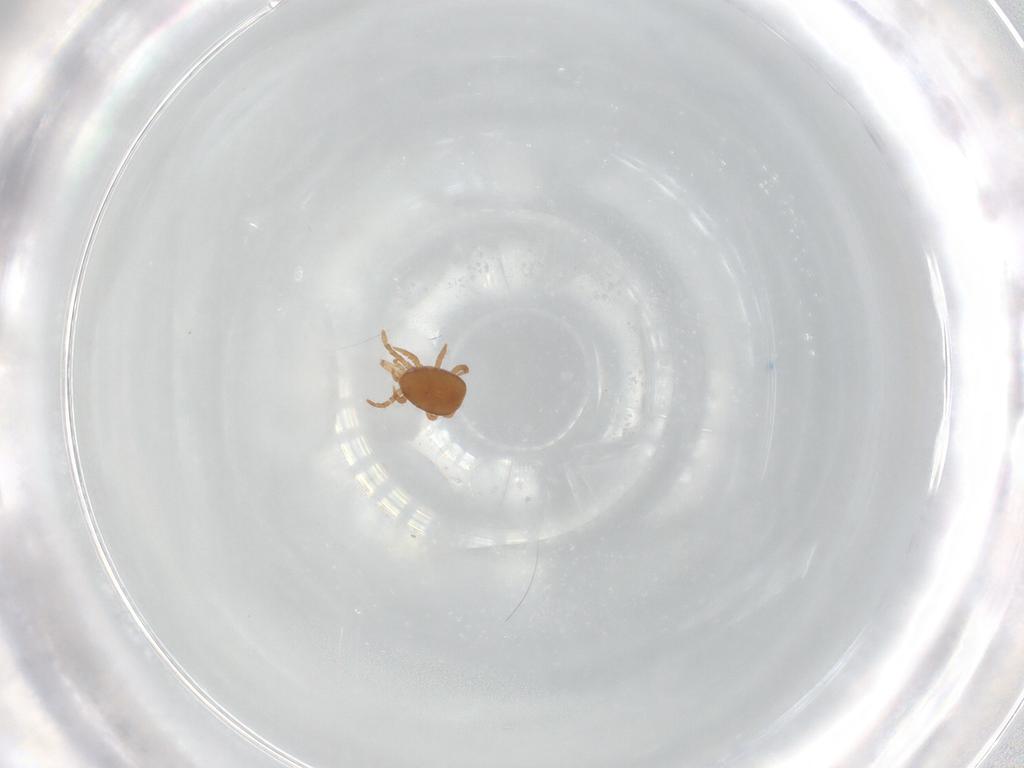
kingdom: Animalia
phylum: Arthropoda
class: Arachnida
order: Trombidiformes
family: Eupodidae
